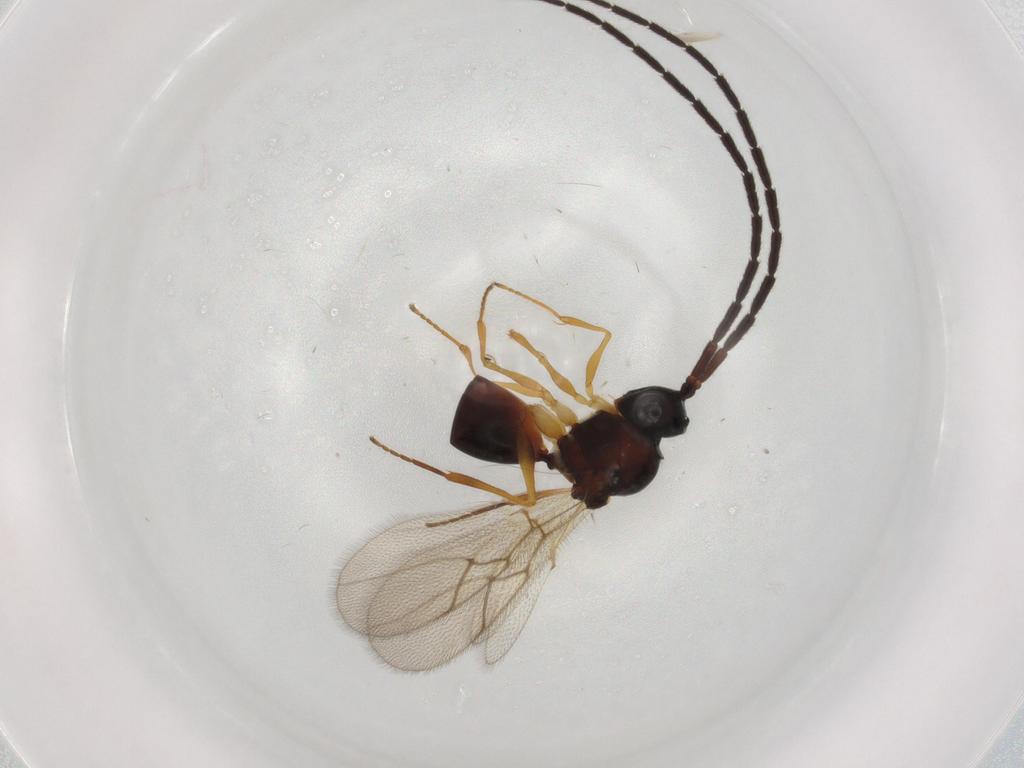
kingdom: Animalia
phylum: Arthropoda
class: Insecta
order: Hymenoptera
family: Figitidae
